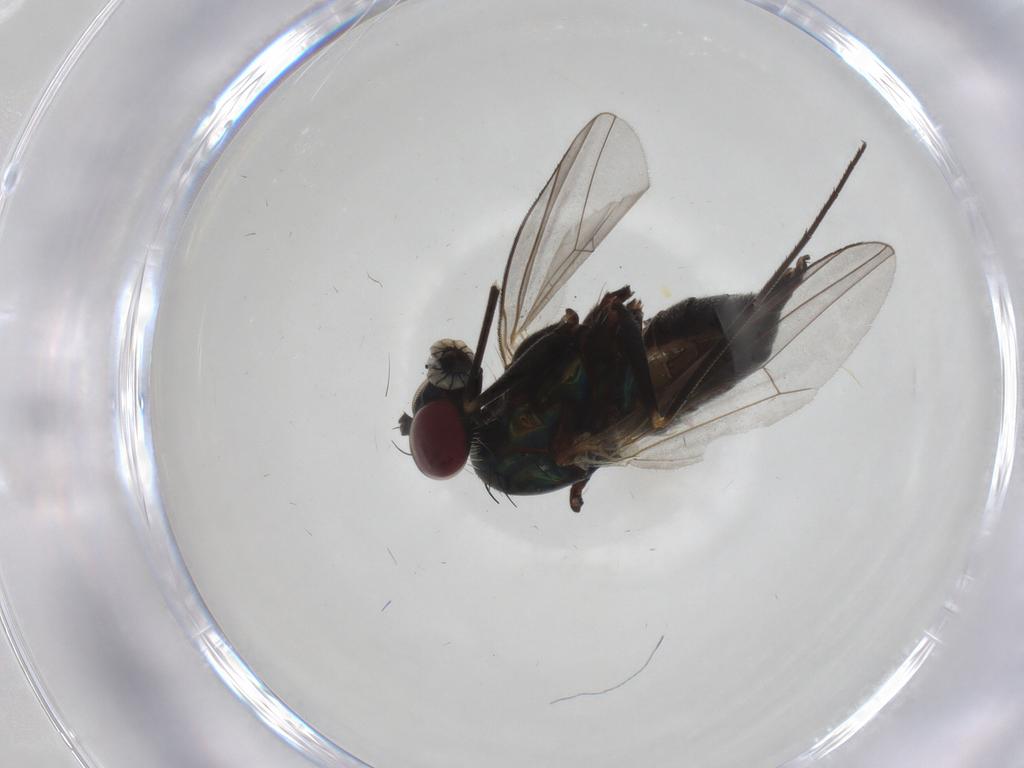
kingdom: Animalia
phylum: Arthropoda
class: Insecta
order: Diptera
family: Dolichopodidae
